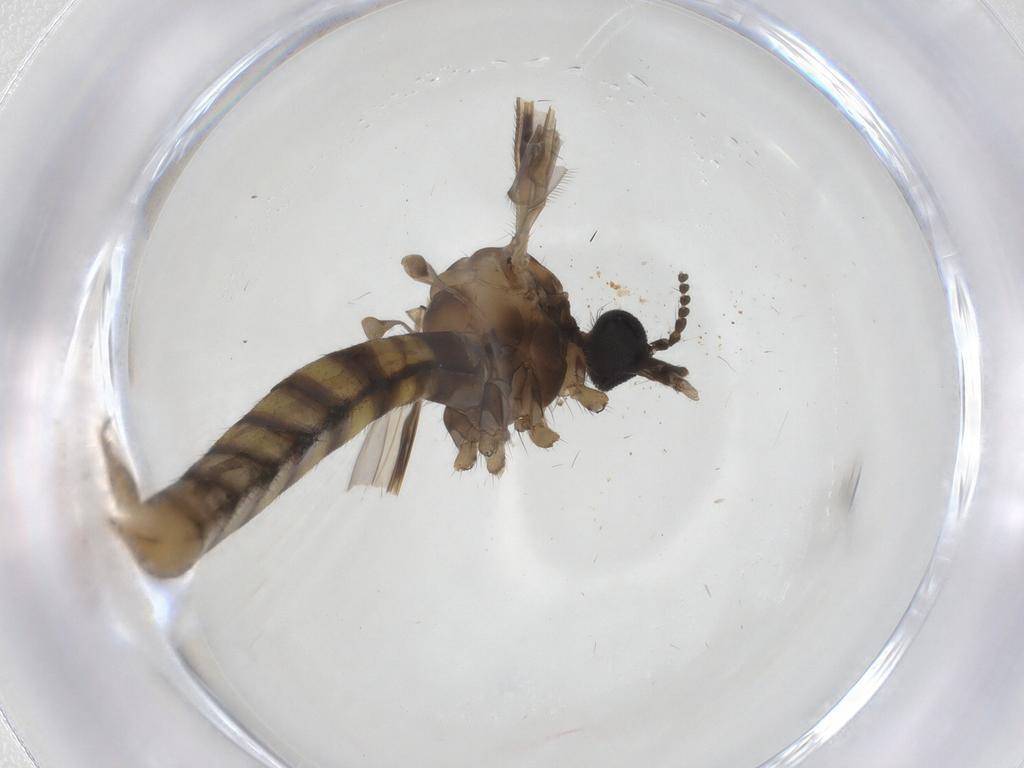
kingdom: Animalia
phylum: Arthropoda
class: Insecta
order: Diptera
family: Limoniidae
